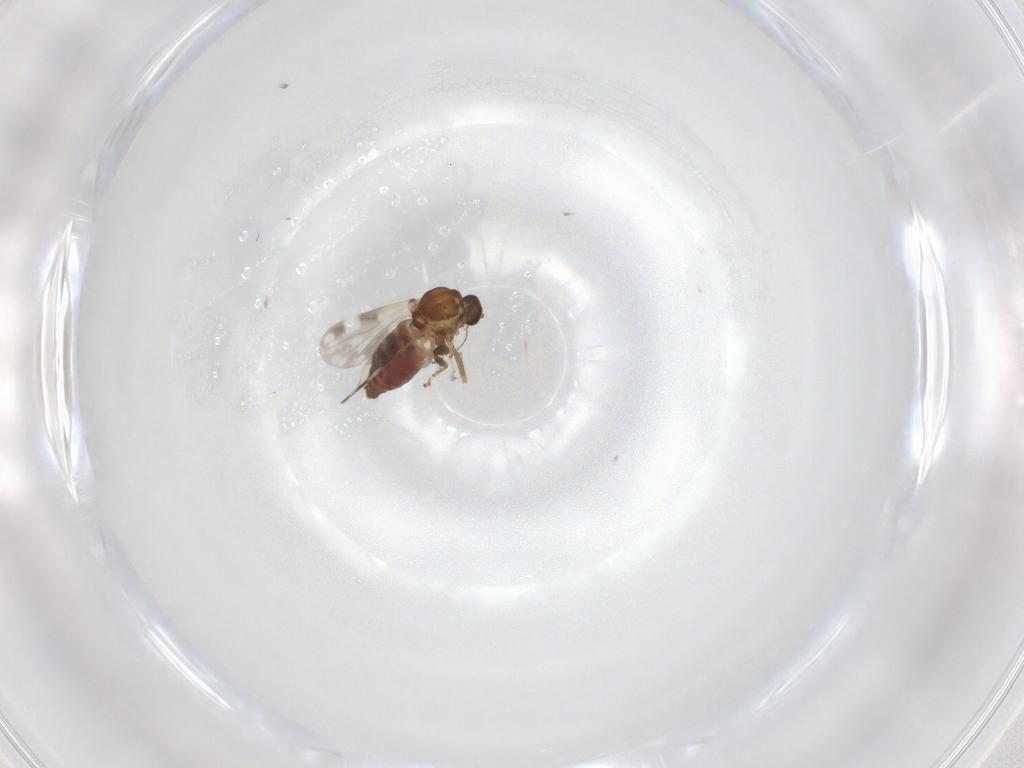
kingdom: Animalia
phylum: Arthropoda
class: Insecta
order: Diptera
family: Ceratopogonidae
